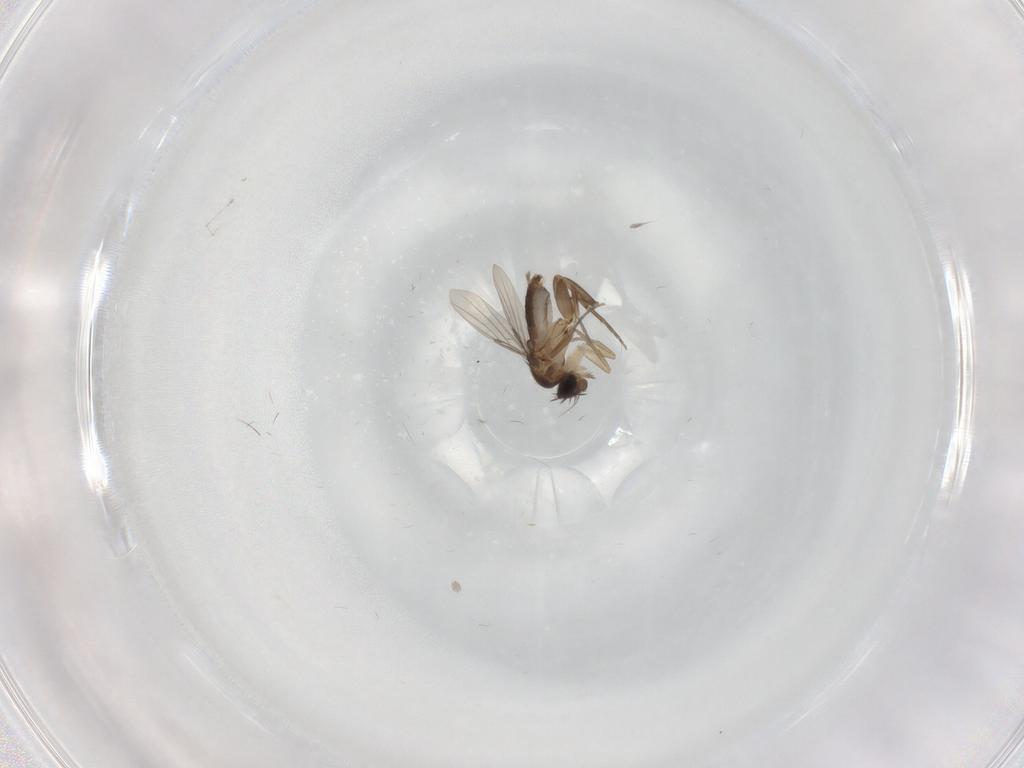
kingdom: Animalia
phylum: Arthropoda
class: Insecta
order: Diptera
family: Phoridae
